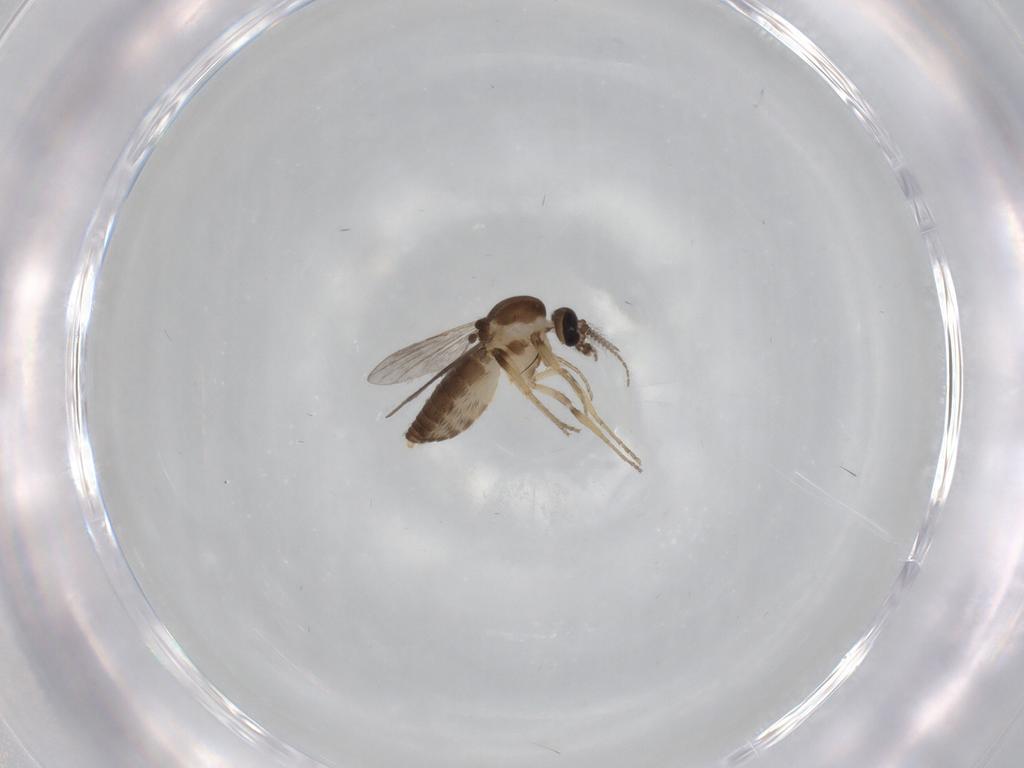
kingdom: Animalia
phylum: Arthropoda
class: Insecta
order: Diptera
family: Ceratopogonidae
